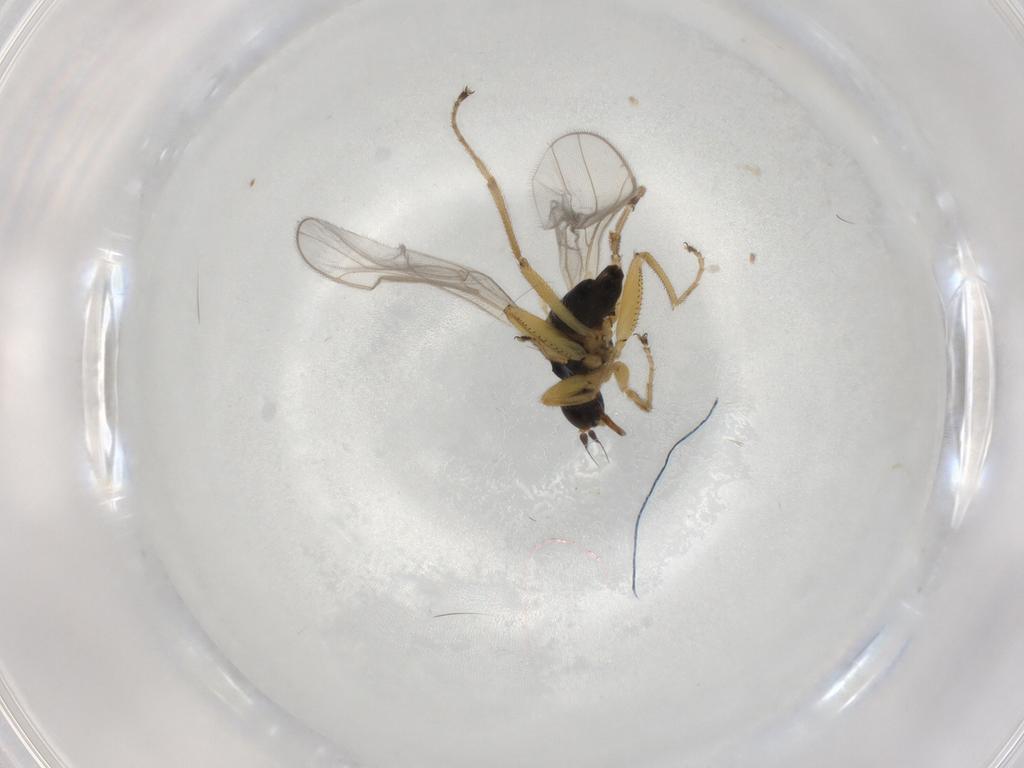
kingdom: Animalia
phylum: Arthropoda
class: Insecta
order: Diptera
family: Hybotidae
